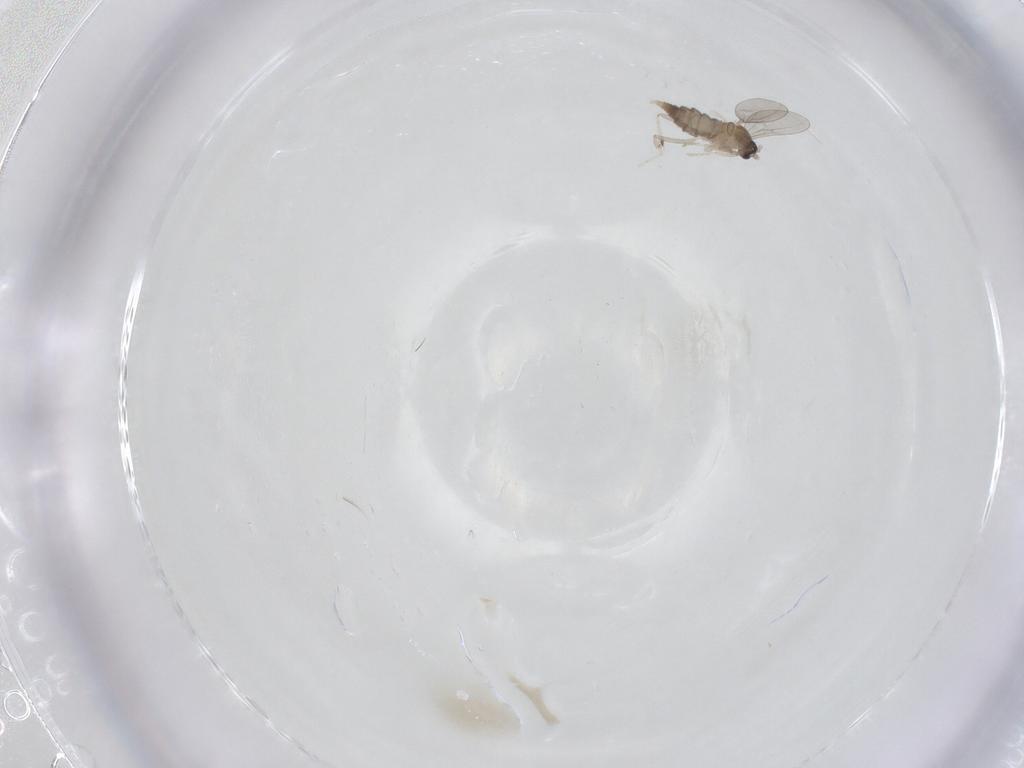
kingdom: Animalia
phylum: Arthropoda
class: Insecta
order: Diptera
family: Cecidomyiidae
